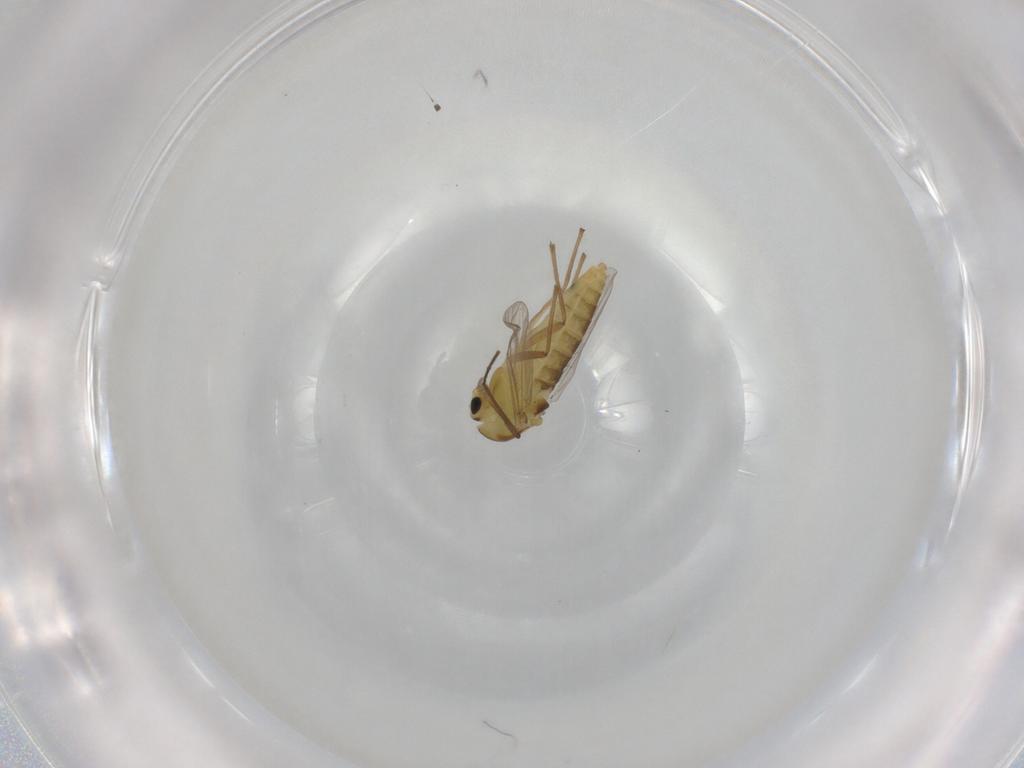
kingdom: Animalia
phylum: Arthropoda
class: Insecta
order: Diptera
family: Chironomidae
